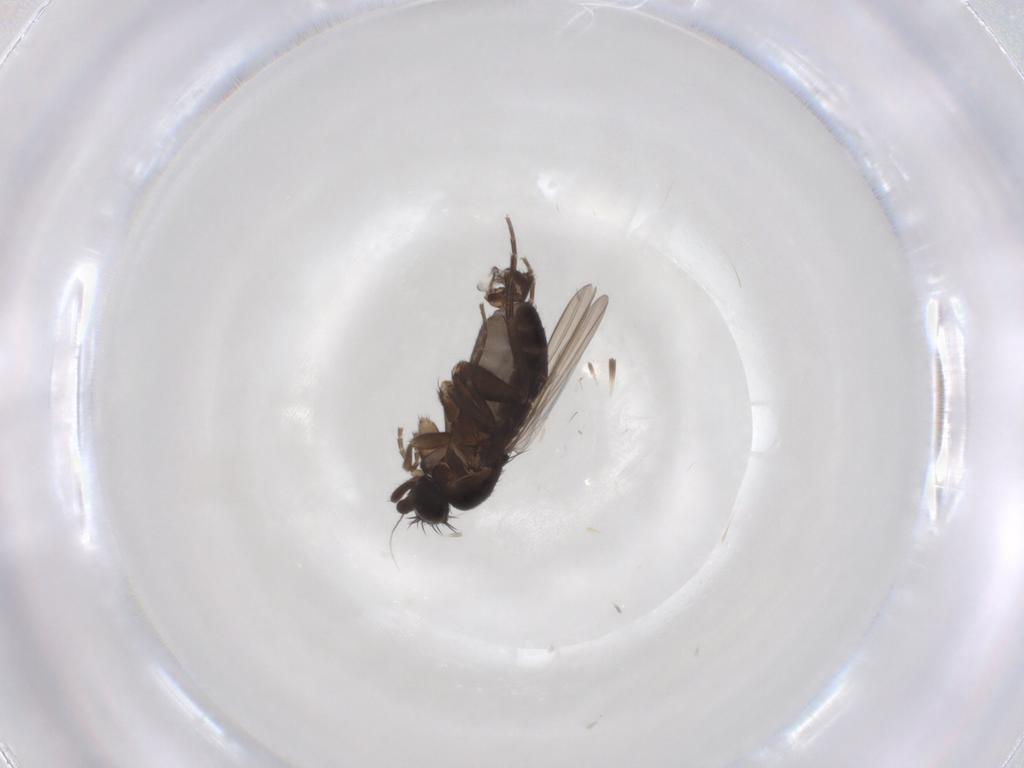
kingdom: Animalia
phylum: Arthropoda
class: Insecta
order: Diptera
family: Phoridae
